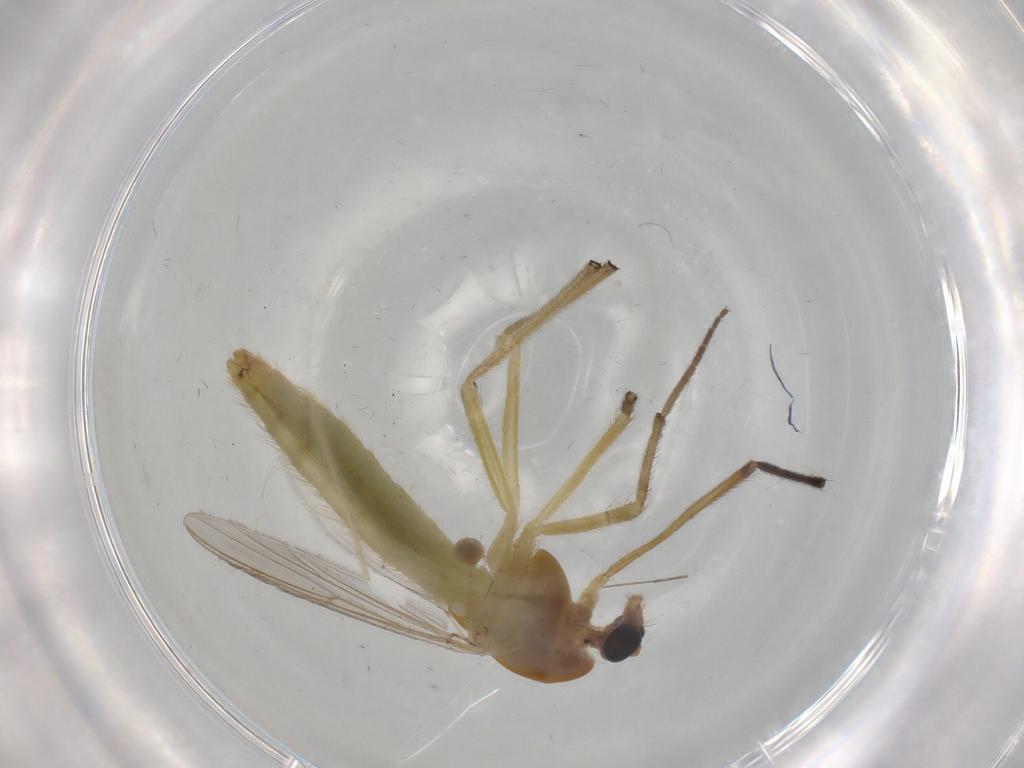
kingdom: Animalia
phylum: Arthropoda
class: Insecta
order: Diptera
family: Chironomidae
